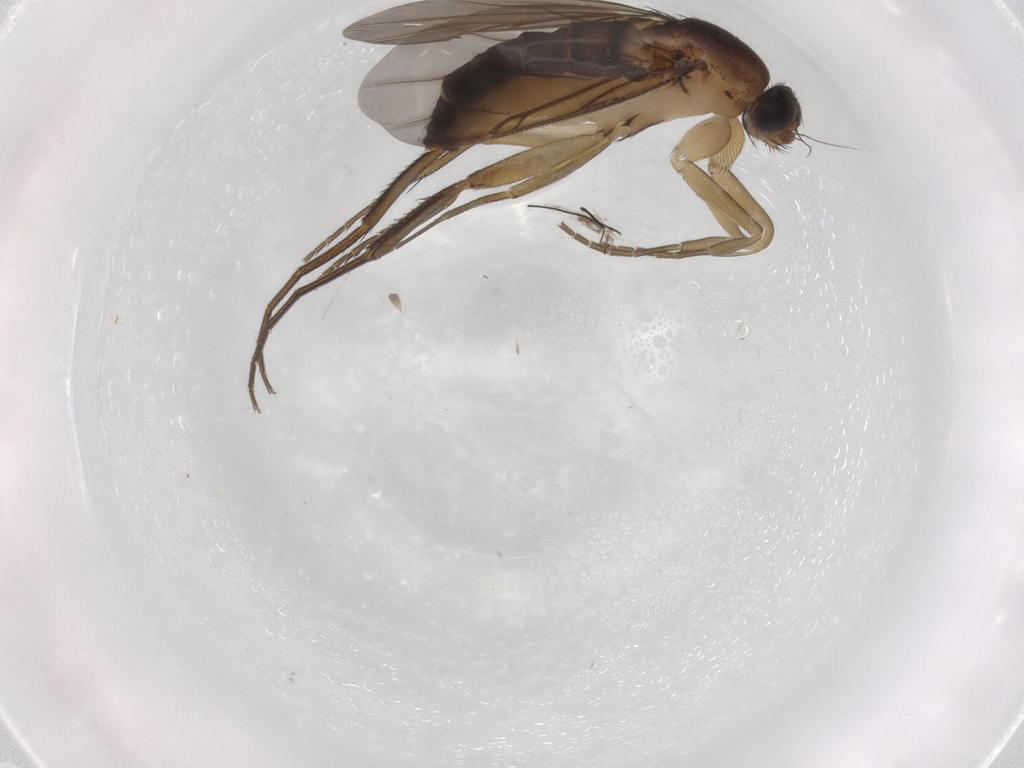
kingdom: Animalia
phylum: Arthropoda
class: Insecta
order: Diptera
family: Phoridae
